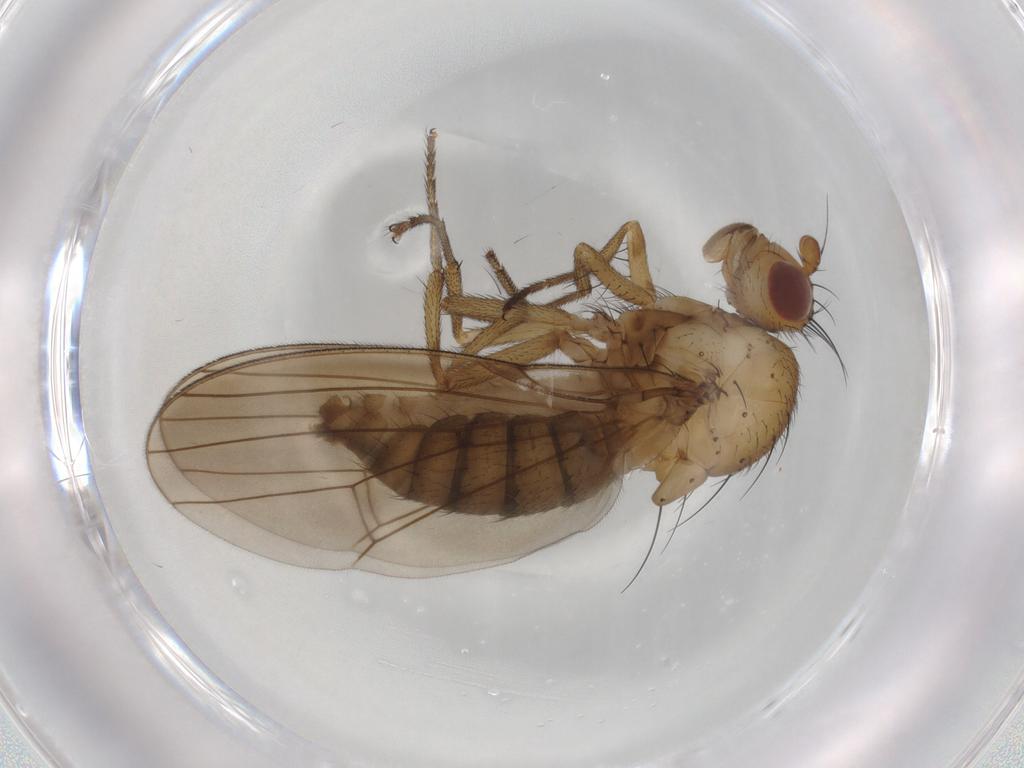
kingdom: Animalia
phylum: Arthropoda
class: Insecta
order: Diptera
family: Lauxaniidae
